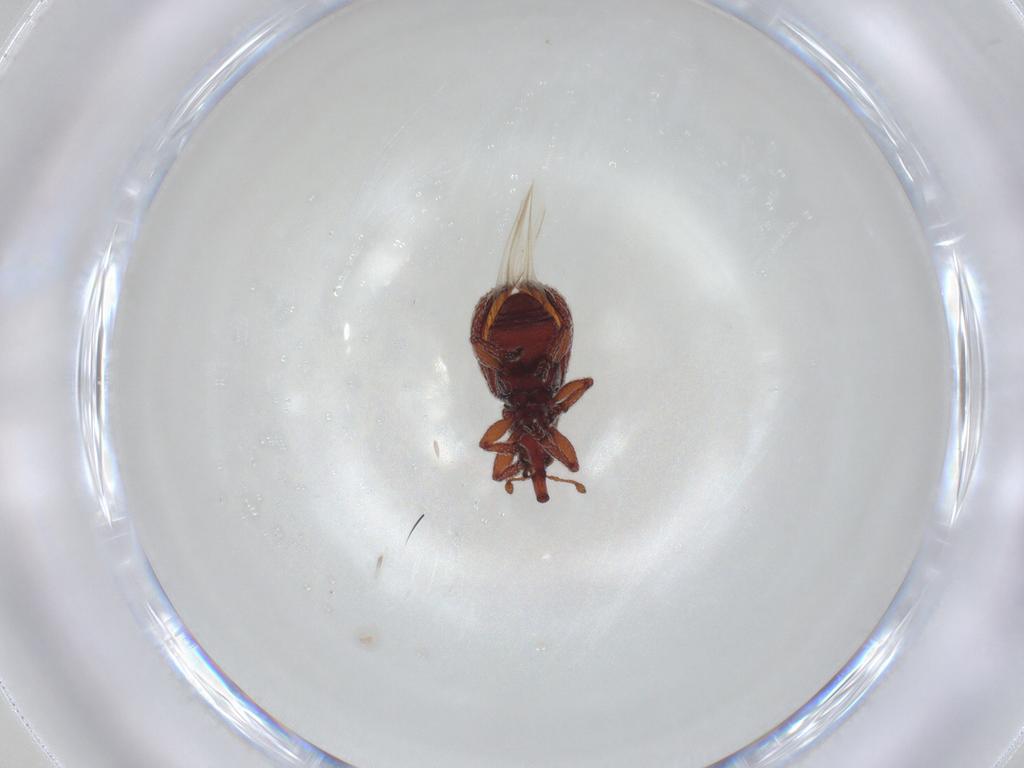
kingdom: Animalia
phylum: Arthropoda
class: Insecta
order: Coleoptera
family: Brentidae
